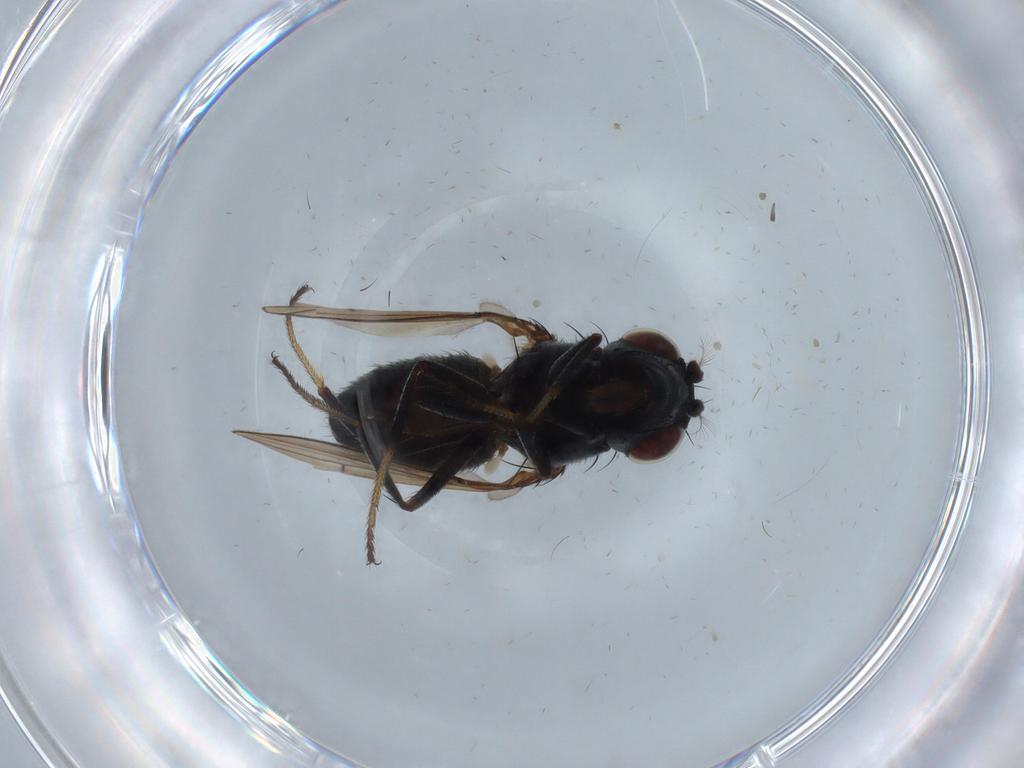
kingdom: Animalia
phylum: Arthropoda
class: Insecta
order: Diptera
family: Ephydridae
